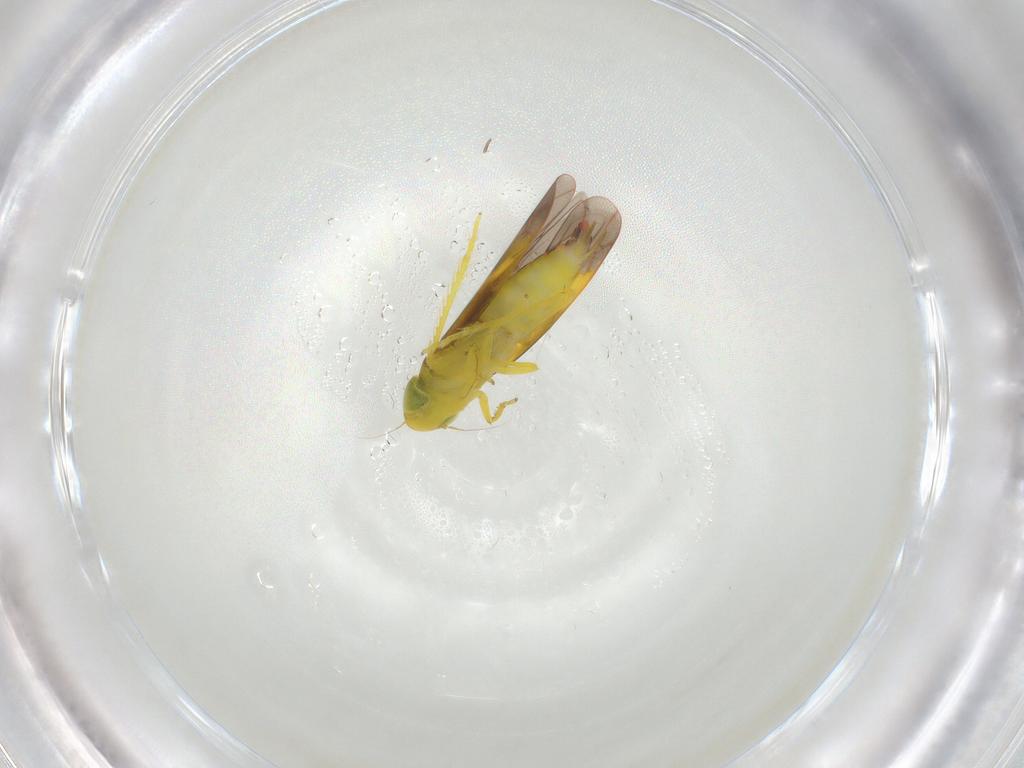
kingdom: Animalia
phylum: Arthropoda
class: Insecta
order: Hemiptera
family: Cicadellidae
